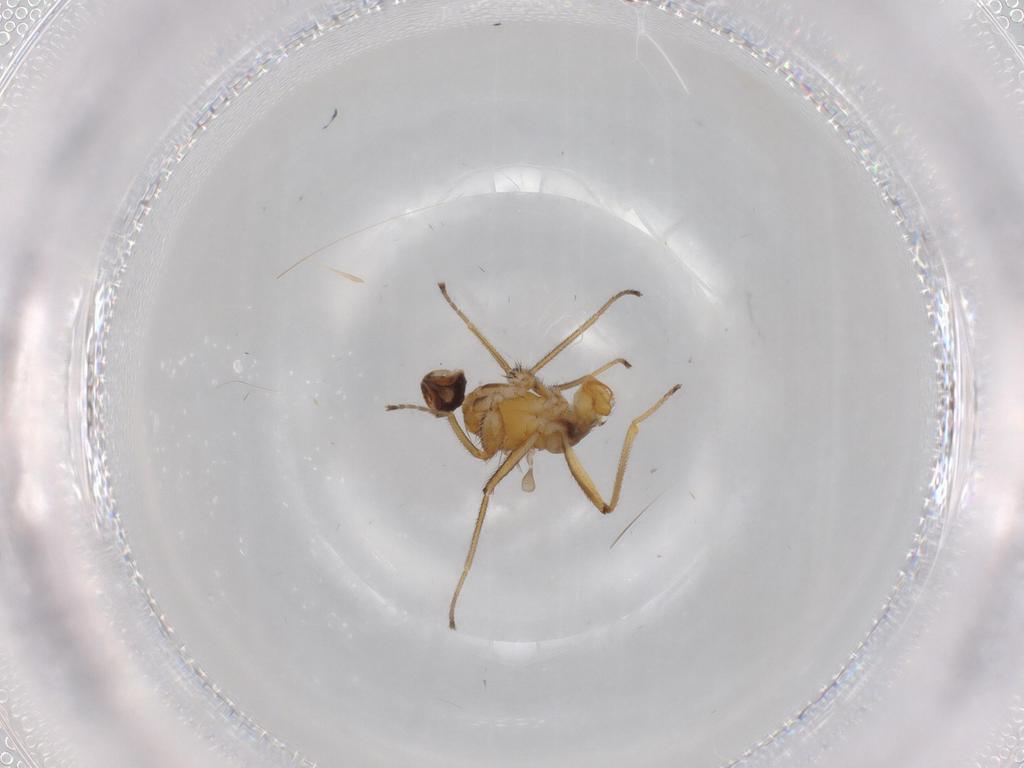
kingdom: Animalia
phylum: Arthropoda
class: Insecta
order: Diptera
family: Empididae
